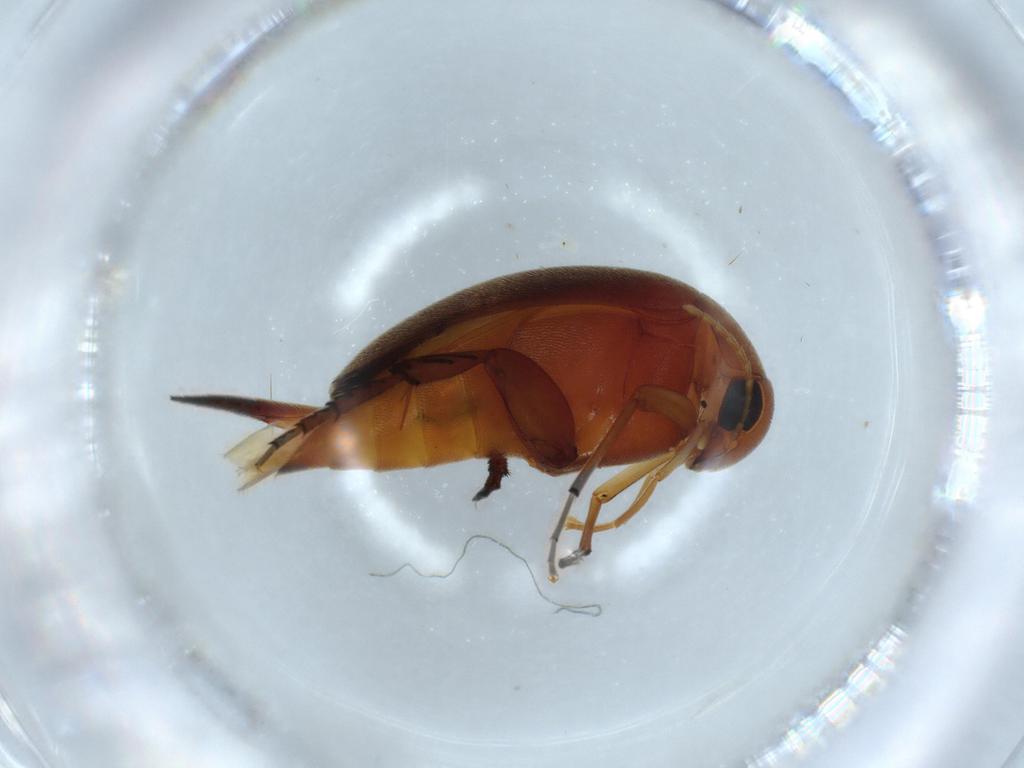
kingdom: Animalia
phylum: Arthropoda
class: Insecta
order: Coleoptera
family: Mordellidae
